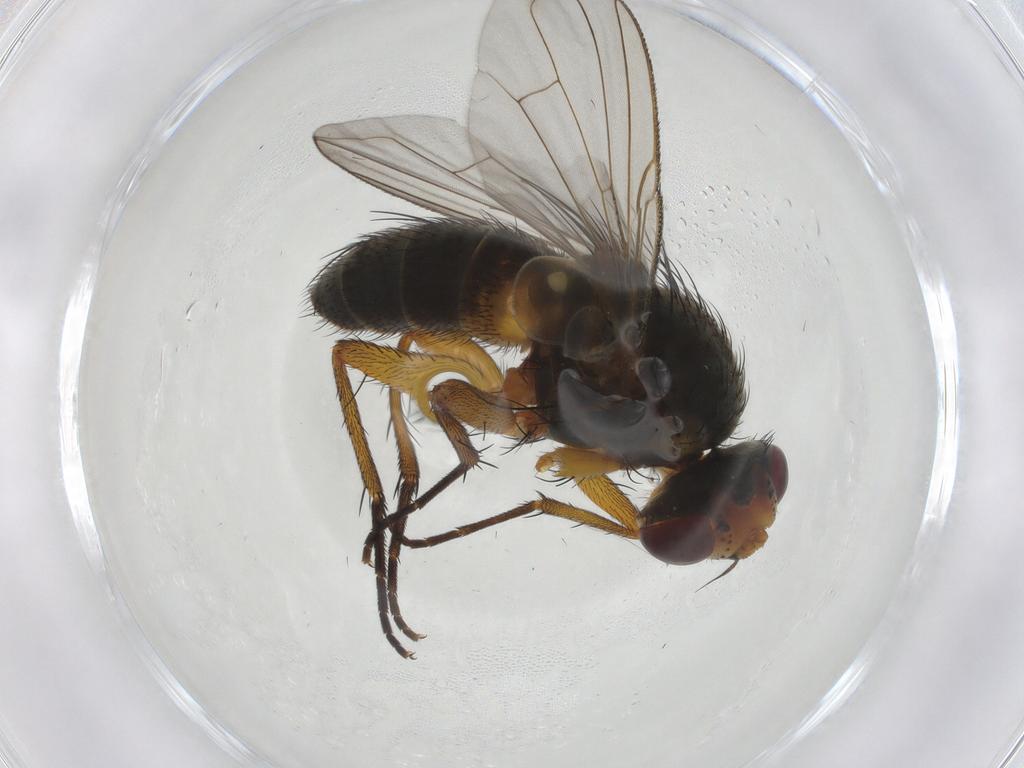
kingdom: Animalia
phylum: Arthropoda
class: Insecta
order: Diptera
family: Tachinidae
